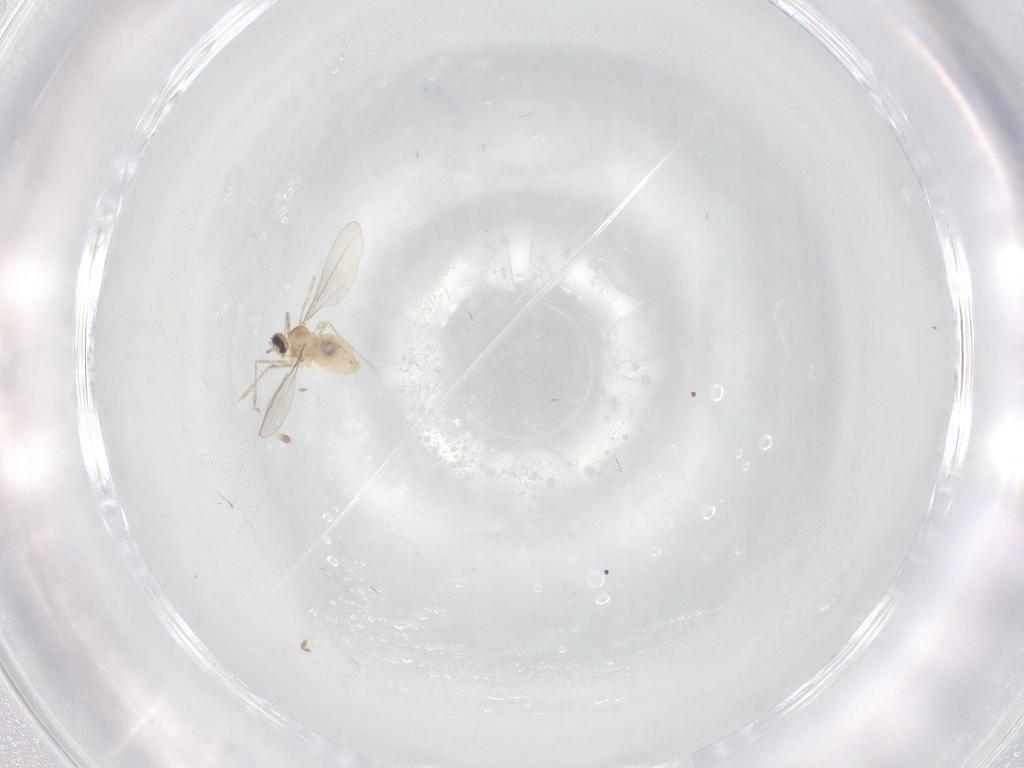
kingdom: Animalia
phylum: Arthropoda
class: Insecta
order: Diptera
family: Cecidomyiidae
